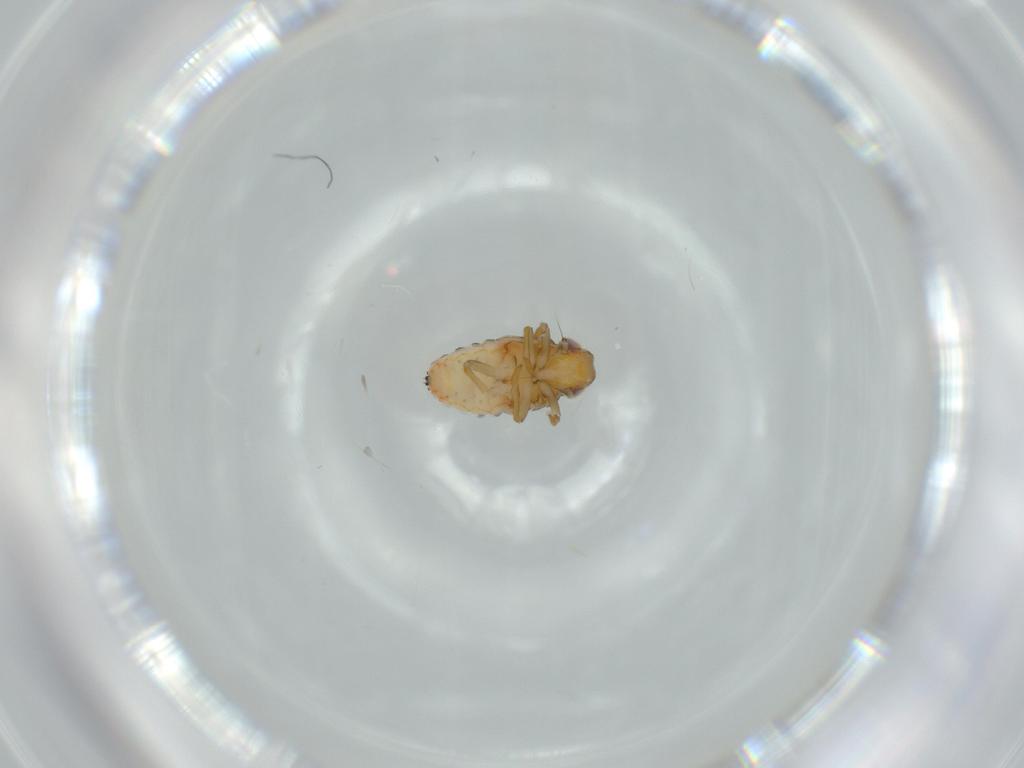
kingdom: Animalia
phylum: Arthropoda
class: Insecta
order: Hemiptera
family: Issidae
